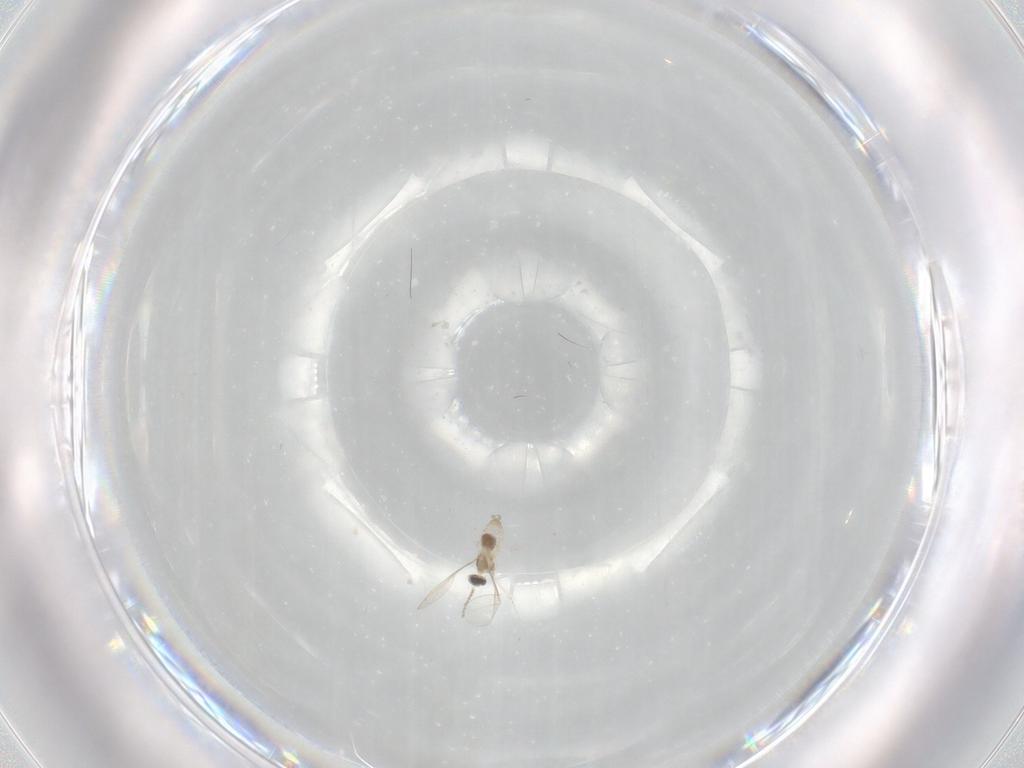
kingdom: Animalia
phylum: Arthropoda
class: Insecta
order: Diptera
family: Cecidomyiidae
